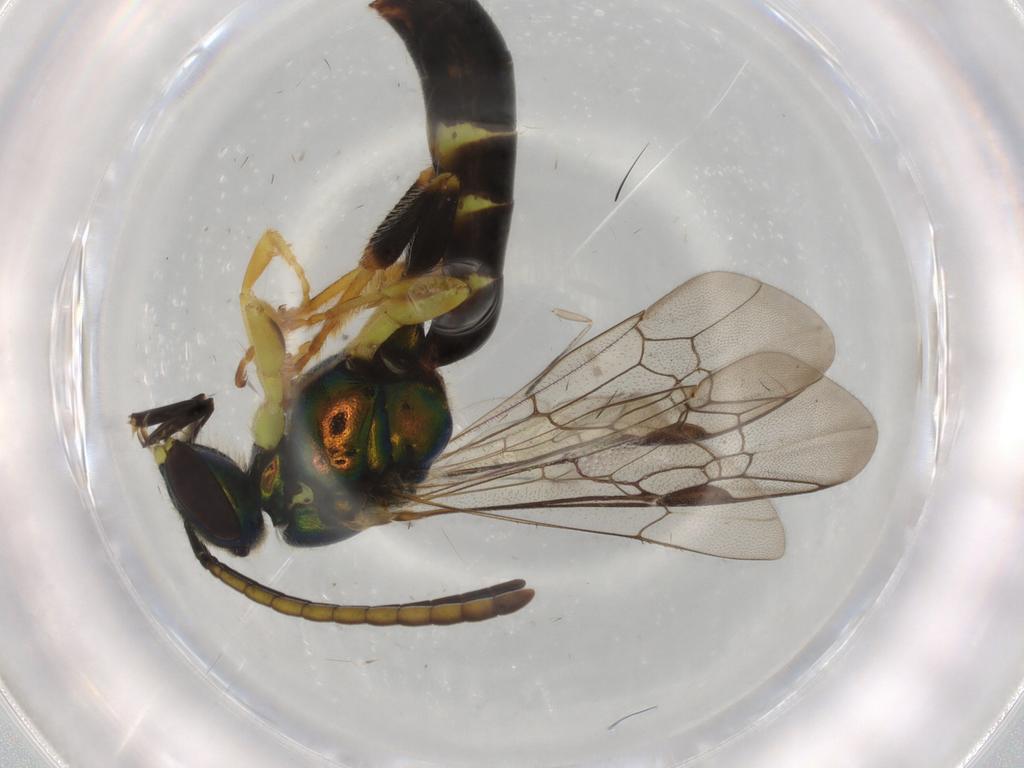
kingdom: Animalia
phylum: Arthropoda
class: Insecta
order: Hymenoptera
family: Halictidae
